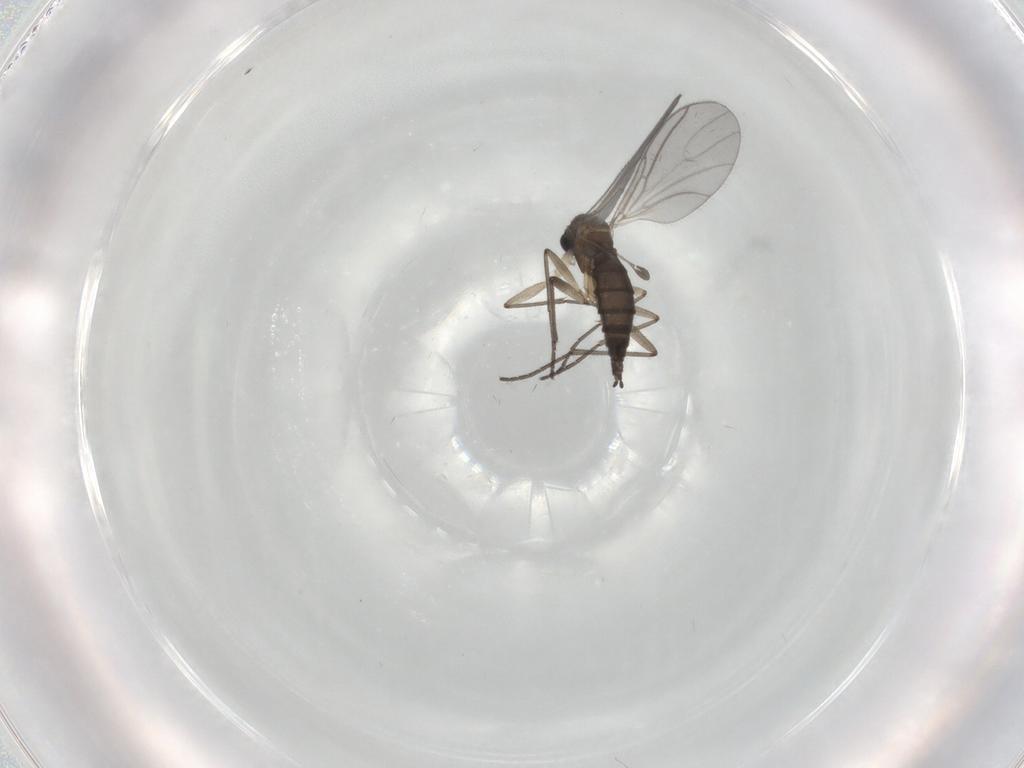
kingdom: Animalia
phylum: Arthropoda
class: Insecta
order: Diptera
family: Sciaridae
